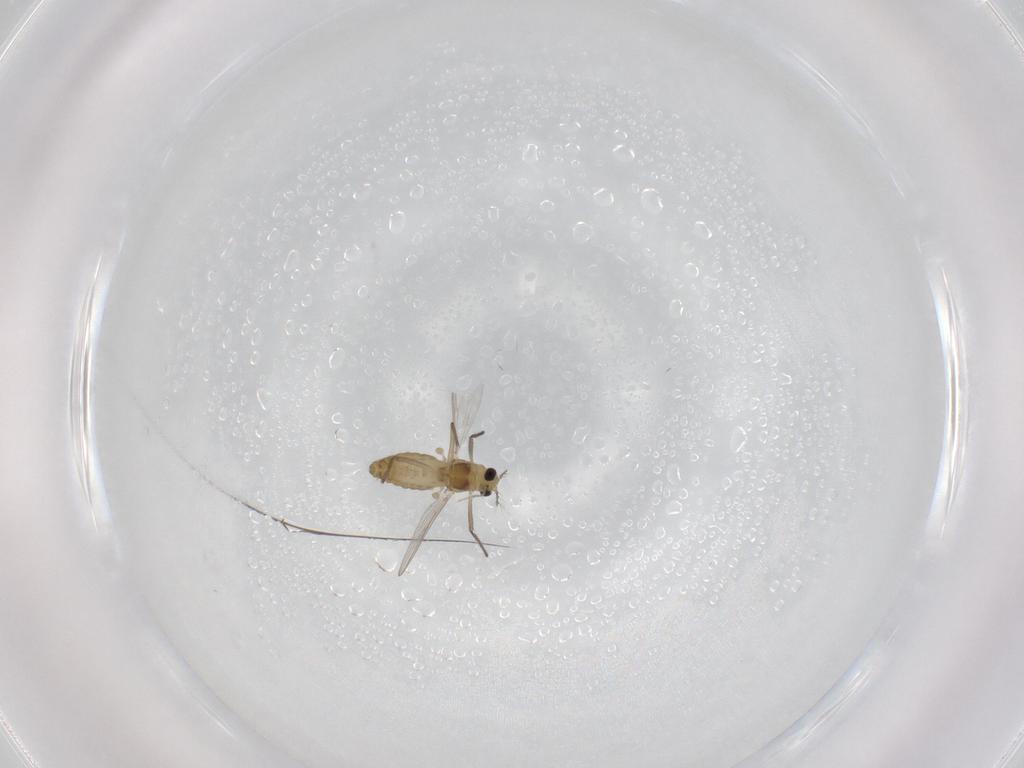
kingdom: Animalia
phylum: Arthropoda
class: Insecta
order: Diptera
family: Chironomidae
